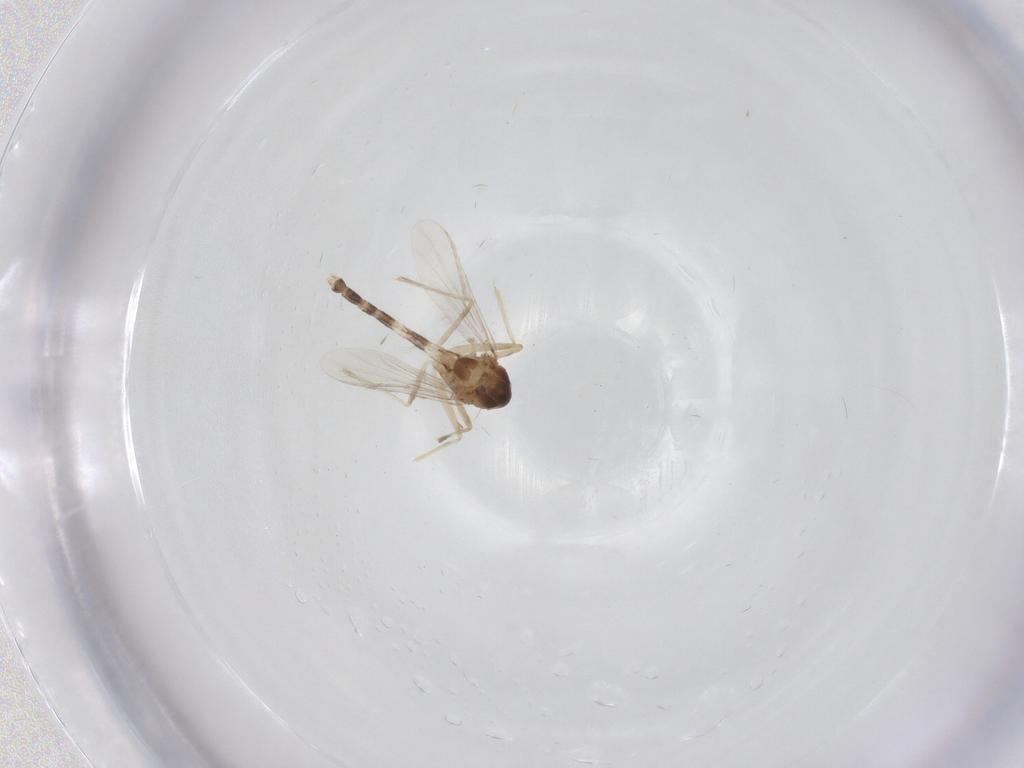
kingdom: Animalia
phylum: Arthropoda
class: Insecta
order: Diptera
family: Chironomidae
